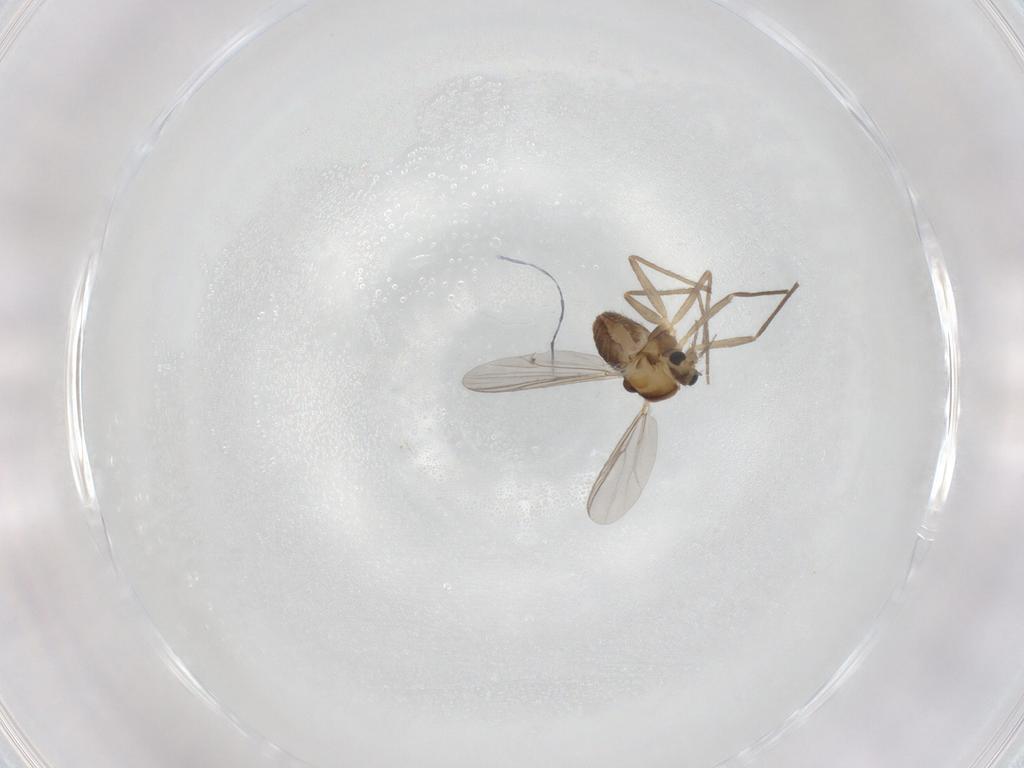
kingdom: Animalia
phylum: Arthropoda
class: Insecta
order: Diptera
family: Chironomidae
